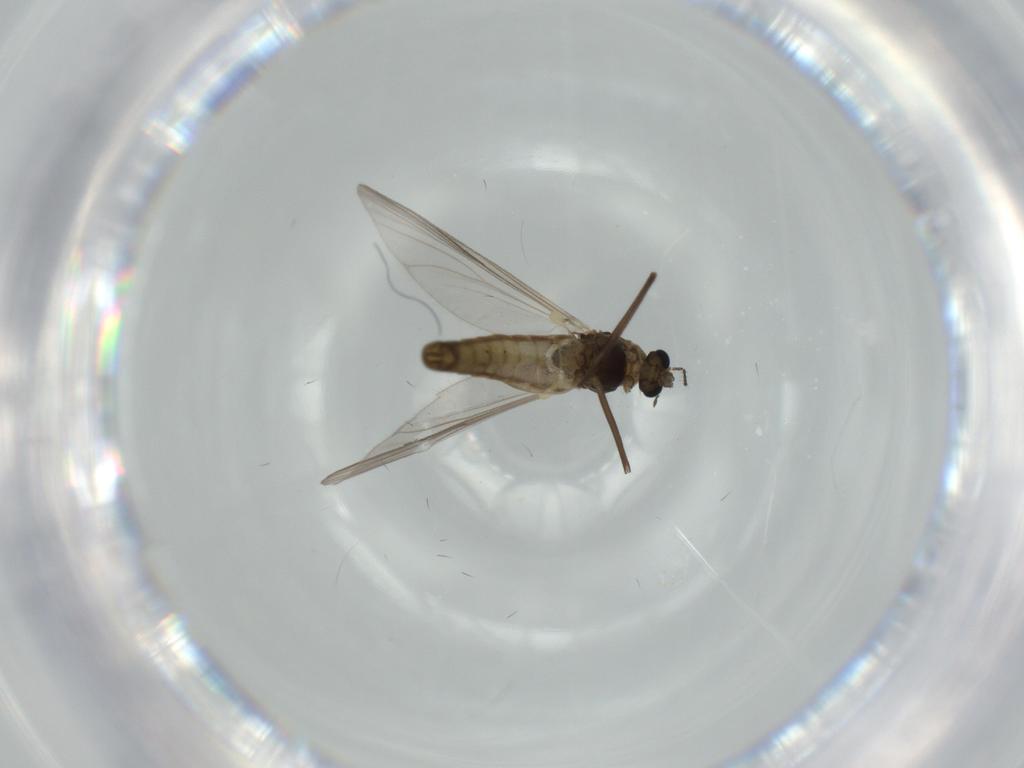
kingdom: Animalia
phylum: Arthropoda
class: Insecta
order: Diptera
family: Chironomidae
